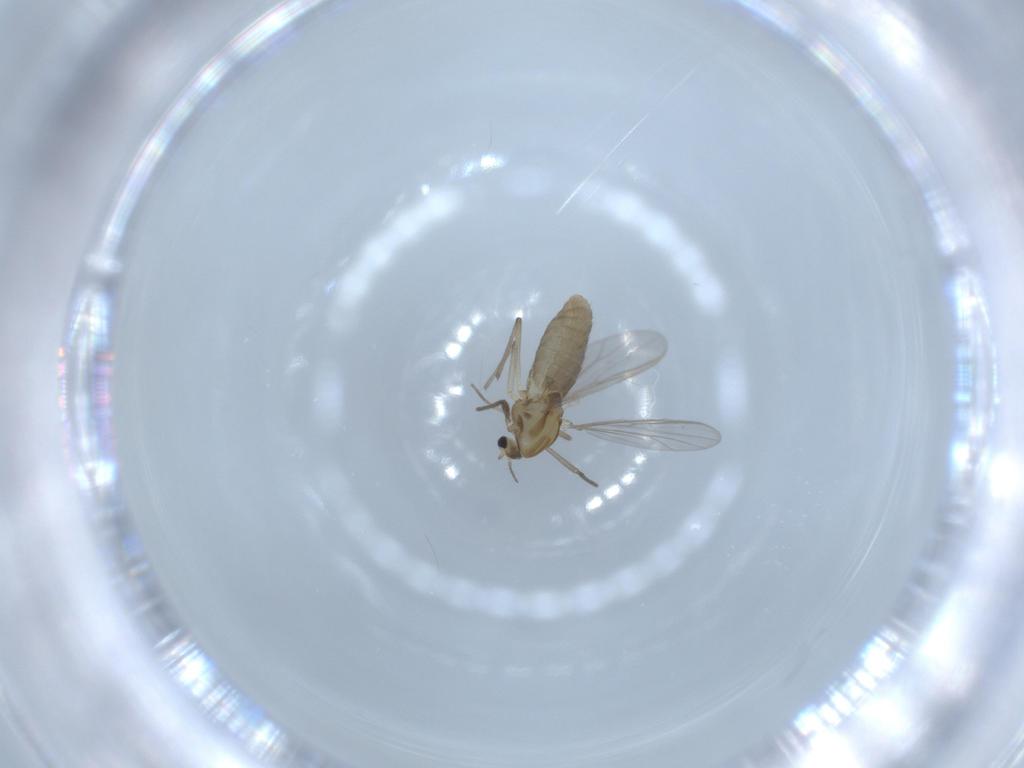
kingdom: Animalia
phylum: Arthropoda
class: Insecta
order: Diptera
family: Chironomidae
